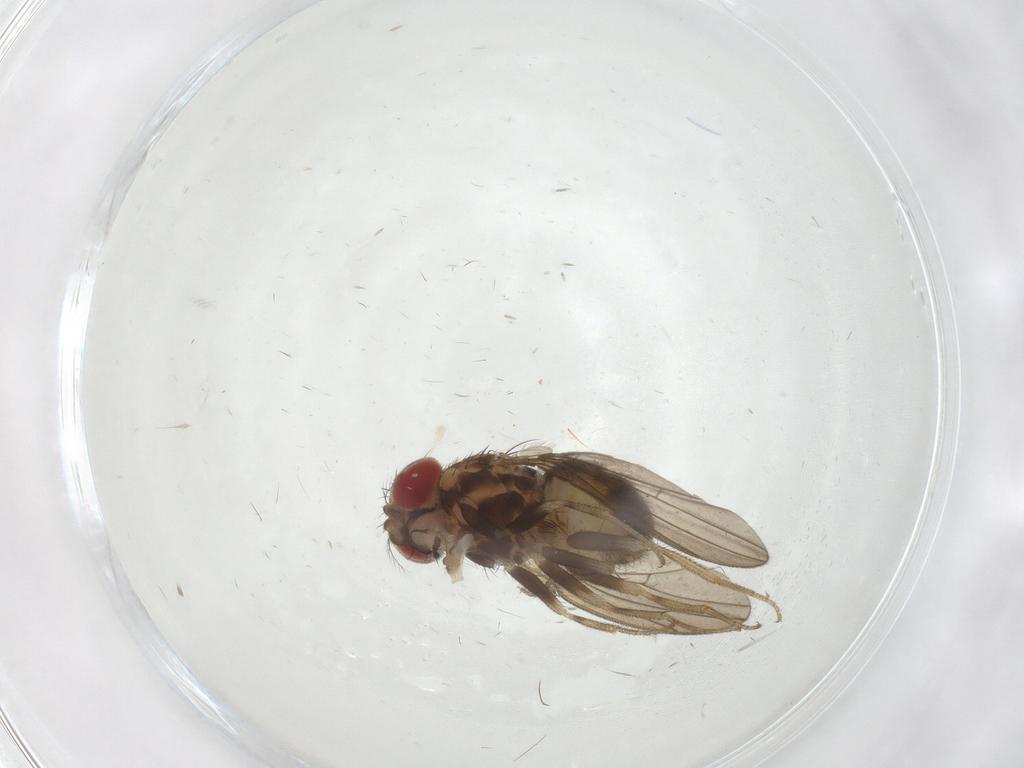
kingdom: Animalia
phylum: Arthropoda
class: Insecta
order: Diptera
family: Drosophilidae
